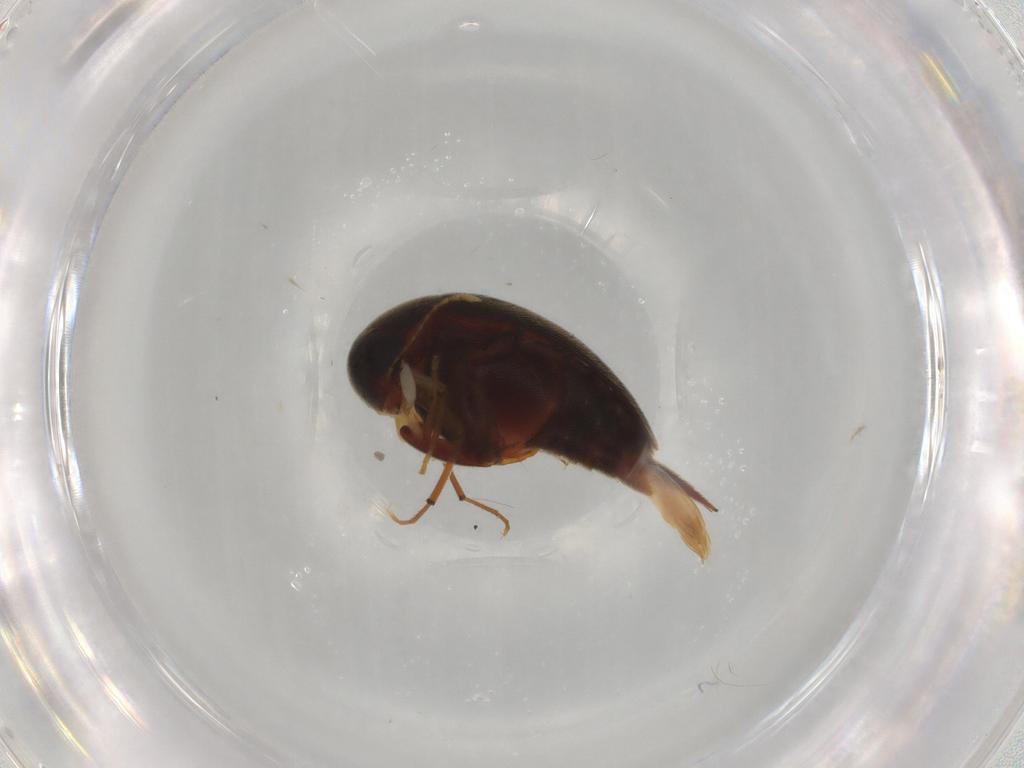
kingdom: Animalia
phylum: Arthropoda
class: Insecta
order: Coleoptera
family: Mordellidae
